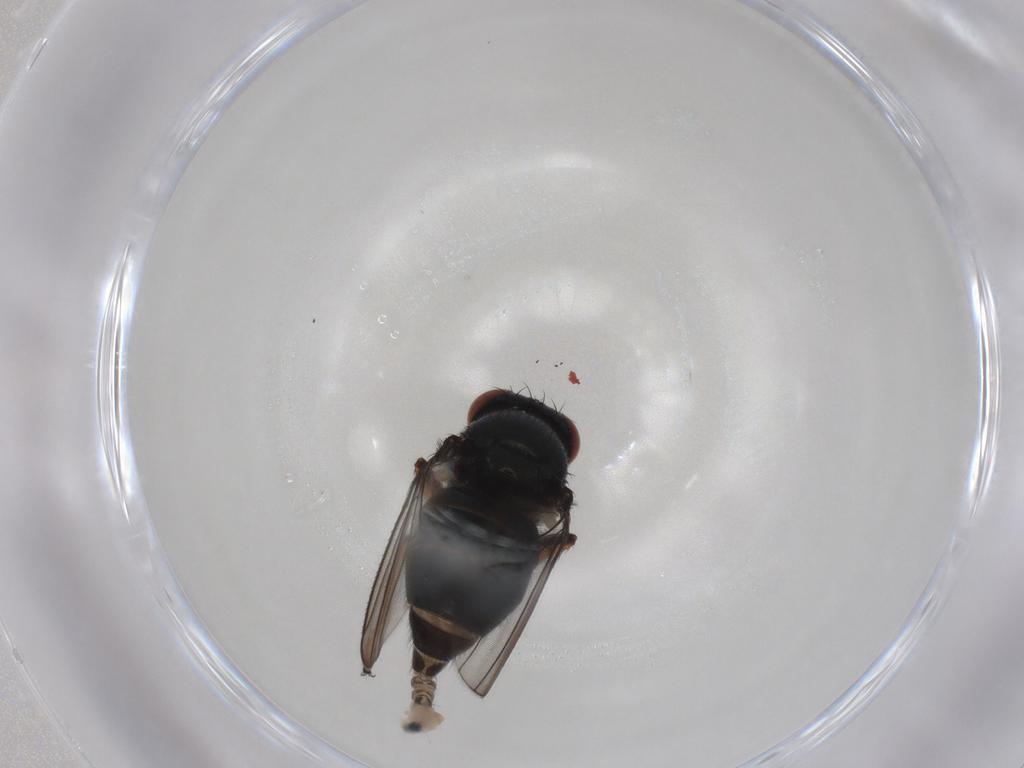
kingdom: Animalia
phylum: Arthropoda
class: Insecta
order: Diptera
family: Ephydridae
